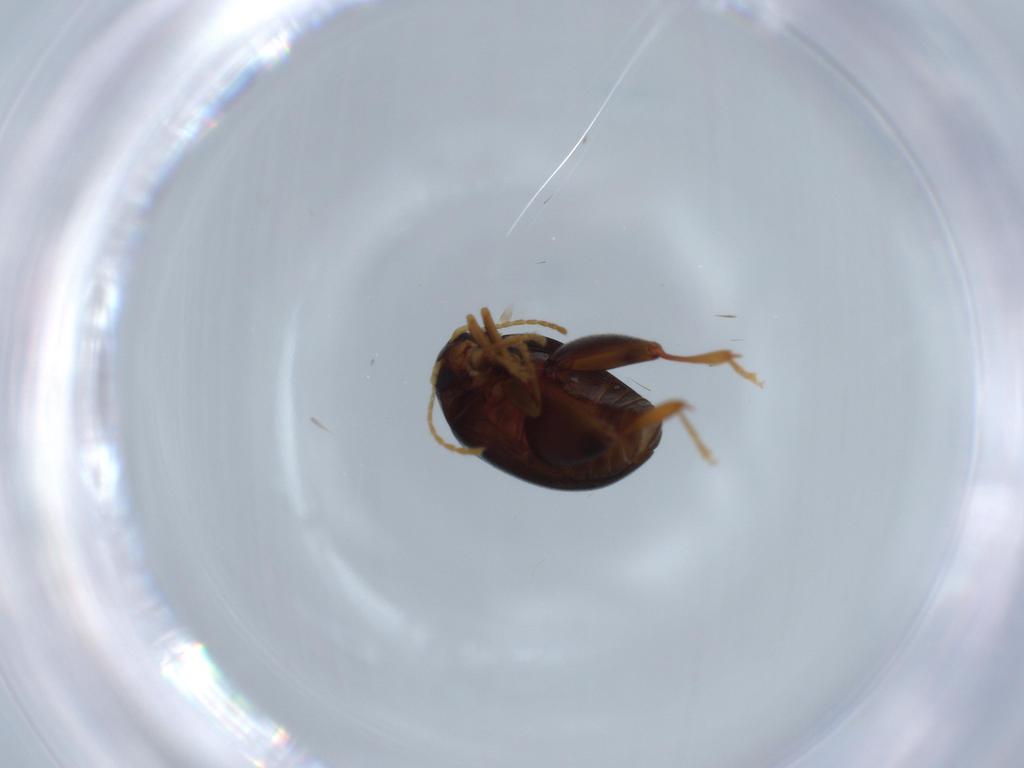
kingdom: Animalia
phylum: Arthropoda
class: Insecta
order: Coleoptera
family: Chrysomelidae
